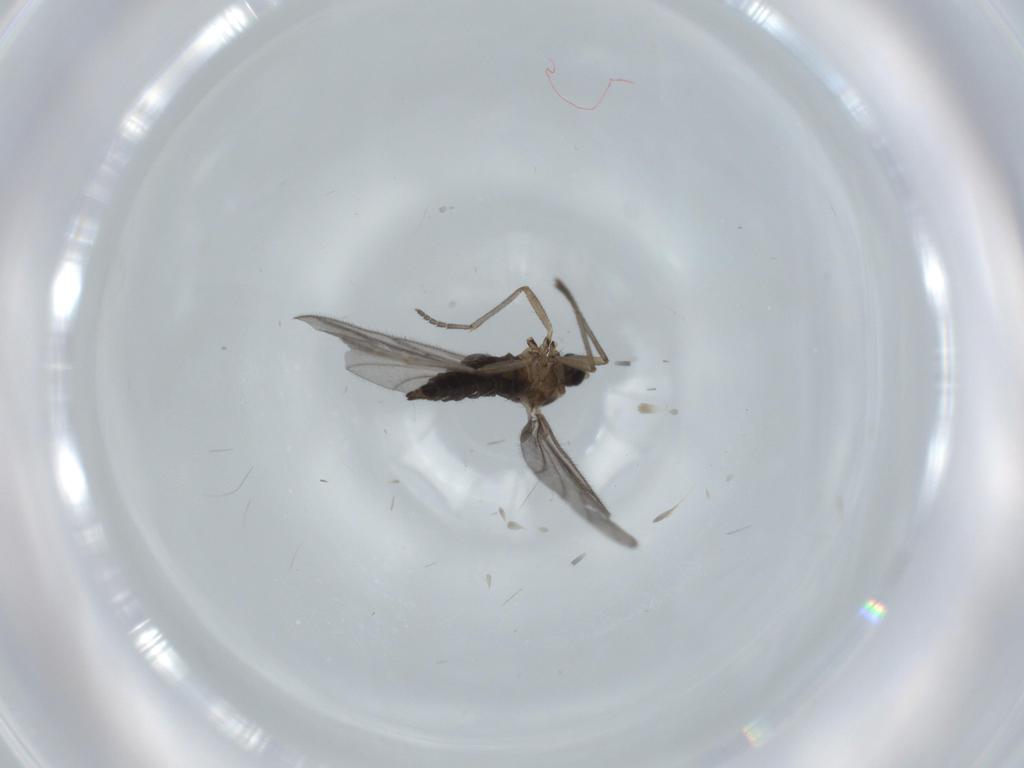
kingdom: Animalia
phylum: Arthropoda
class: Insecta
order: Diptera
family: Sciaridae
